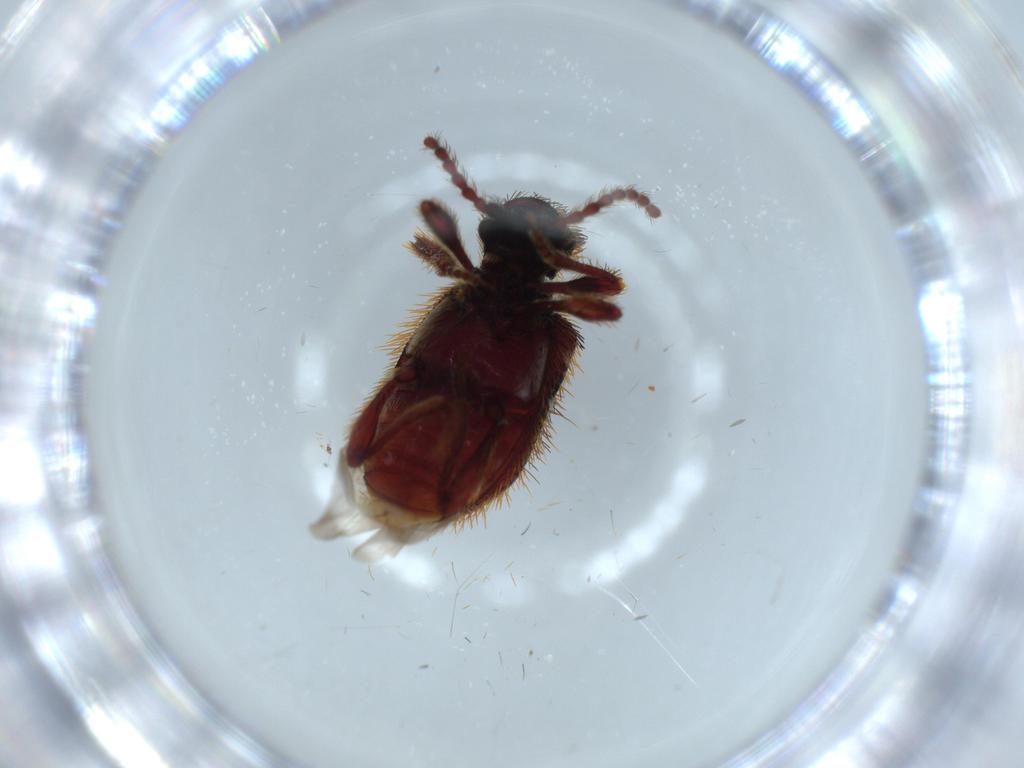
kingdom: Animalia
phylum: Arthropoda
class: Insecta
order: Coleoptera
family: Ptinidae
